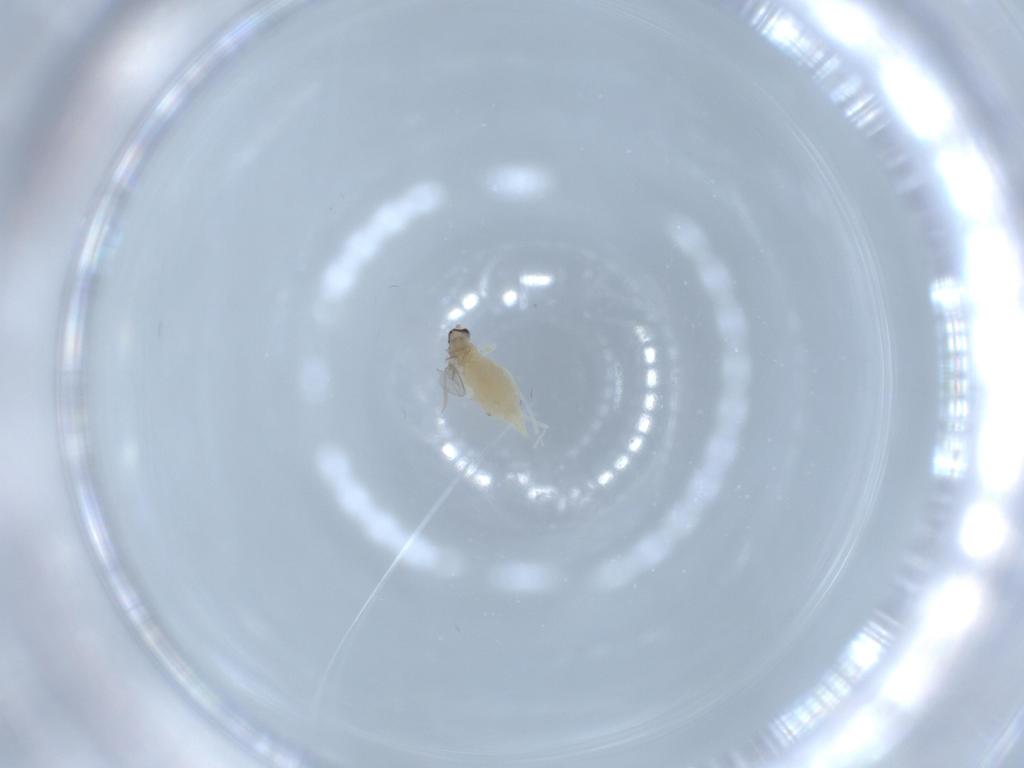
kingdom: Animalia
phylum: Arthropoda
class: Insecta
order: Diptera
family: Cecidomyiidae
